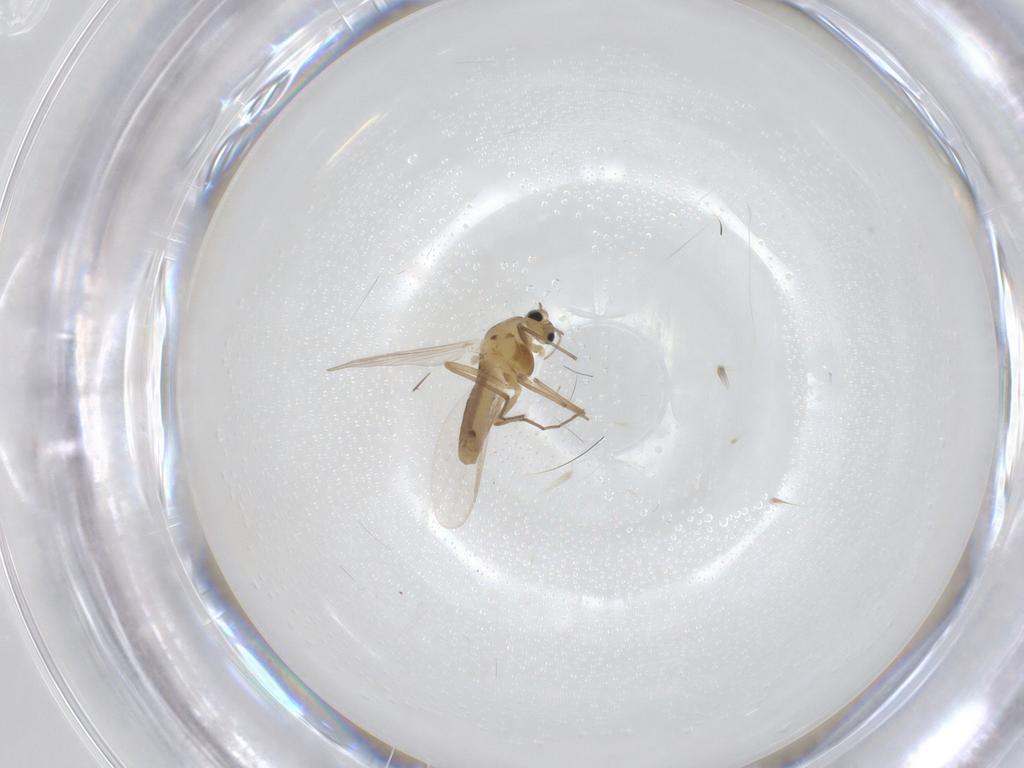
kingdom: Animalia
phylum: Arthropoda
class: Insecta
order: Diptera
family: Chironomidae
